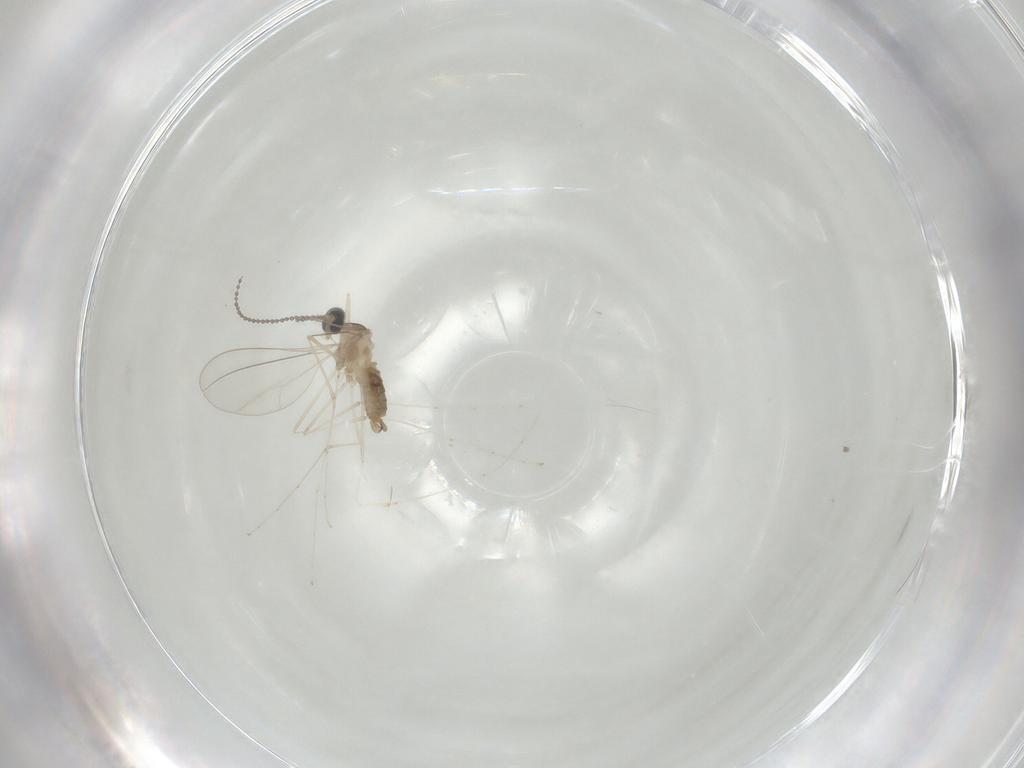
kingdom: Animalia
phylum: Arthropoda
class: Insecta
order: Diptera
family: Cecidomyiidae
